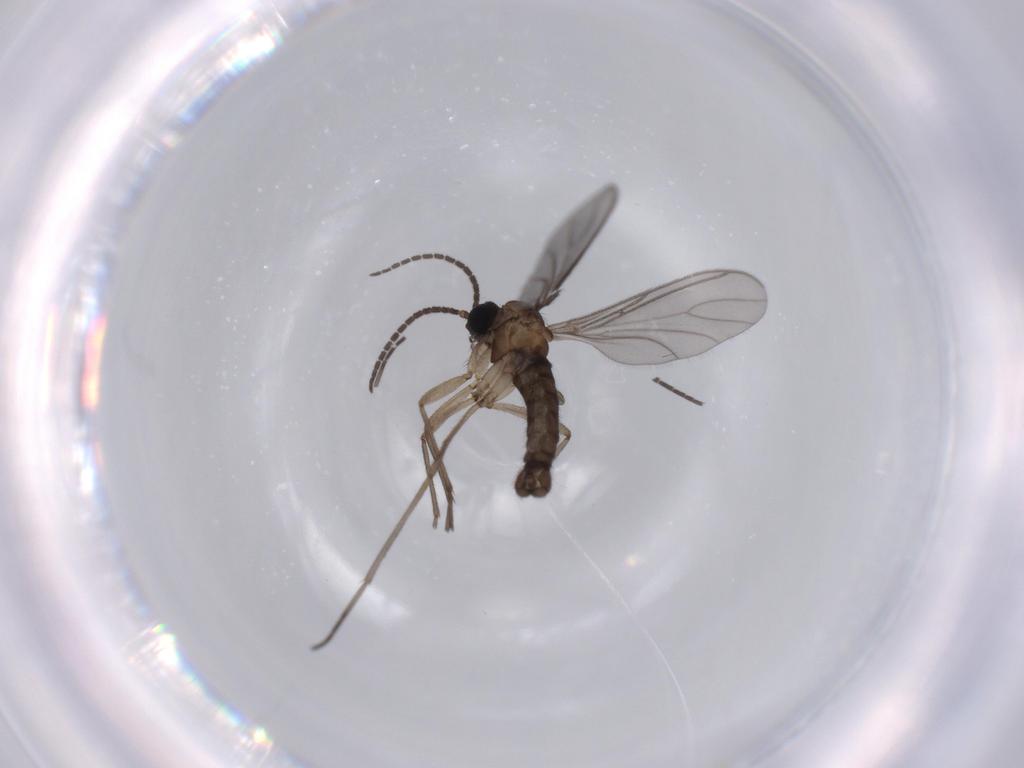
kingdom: Animalia
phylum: Arthropoda
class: Insecta
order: Diptera
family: Sciaridae
